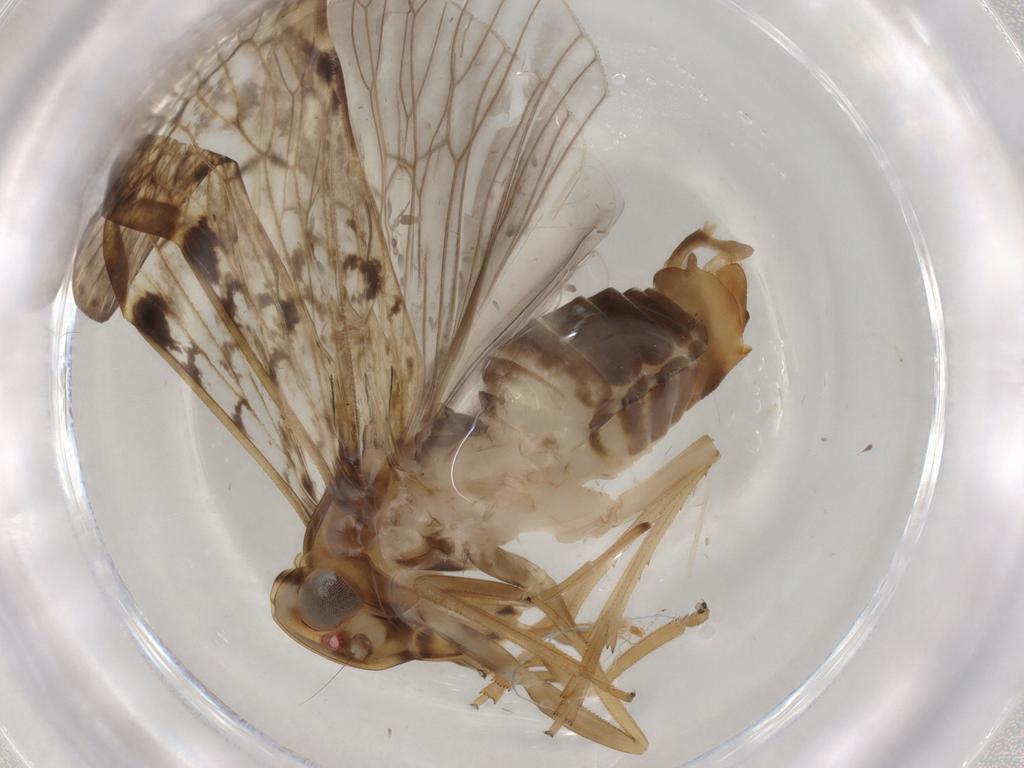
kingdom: Animalia
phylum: Arthropoda
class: Insecta
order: Hemiptera
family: Cixiidae
